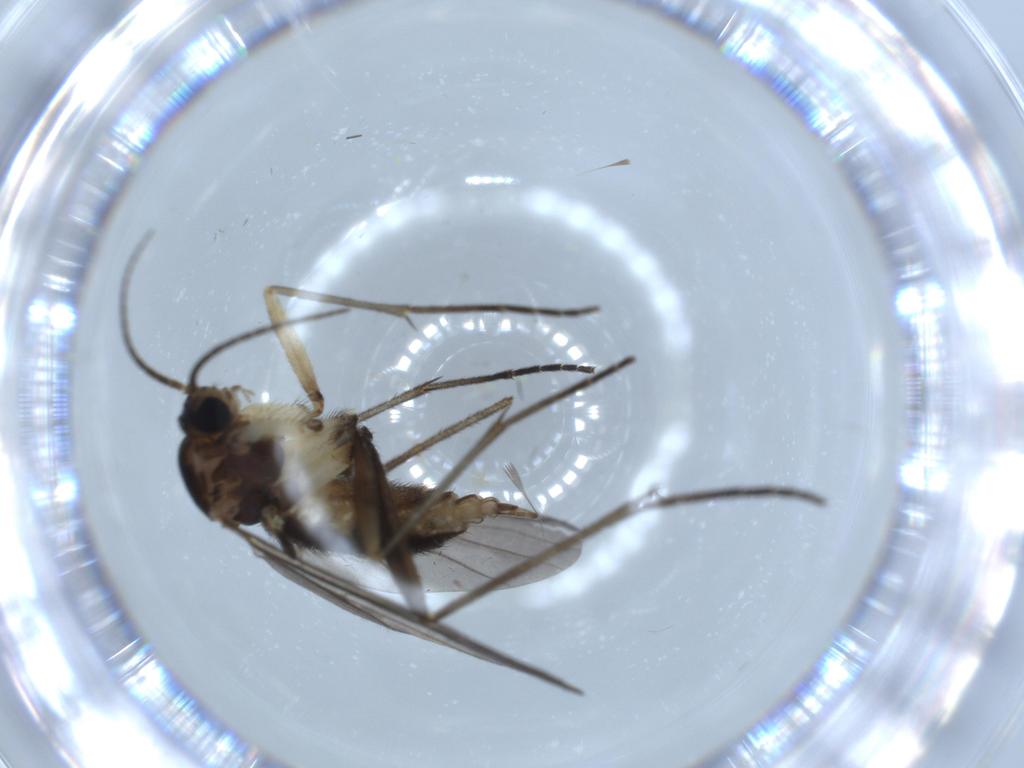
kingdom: Animalia
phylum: Arthropoda
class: Insecta
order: Diptera
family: Sciaridae
